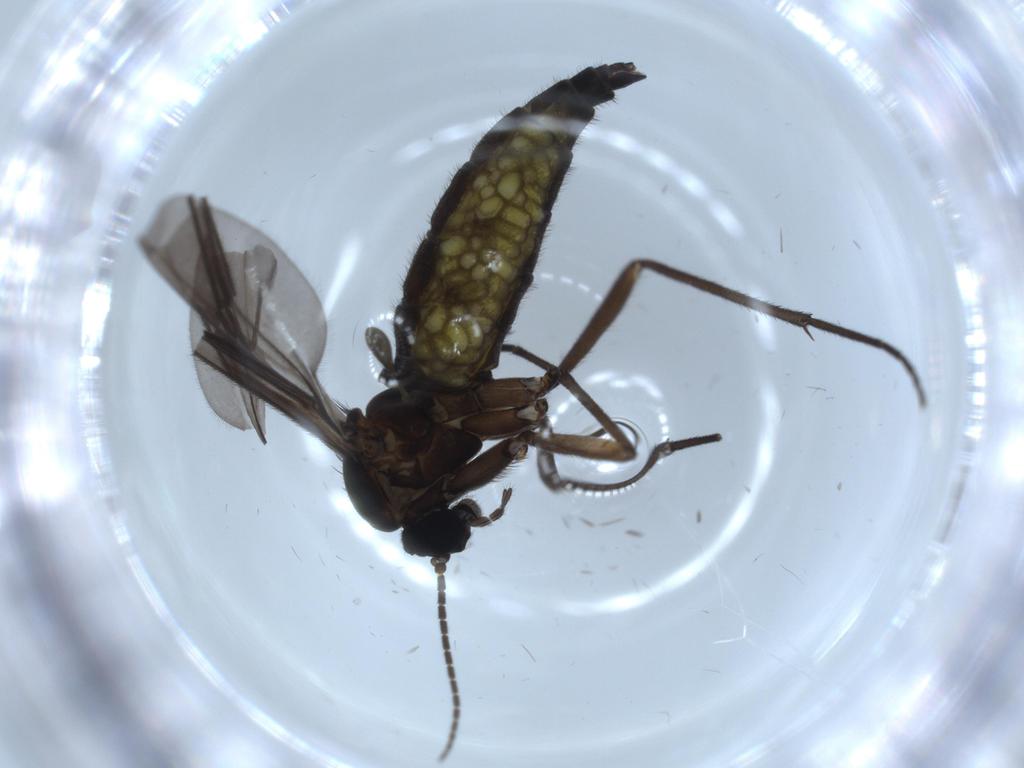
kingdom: Animalia
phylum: Arthropoda
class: Insecta
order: Diptera
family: Sciaridae
